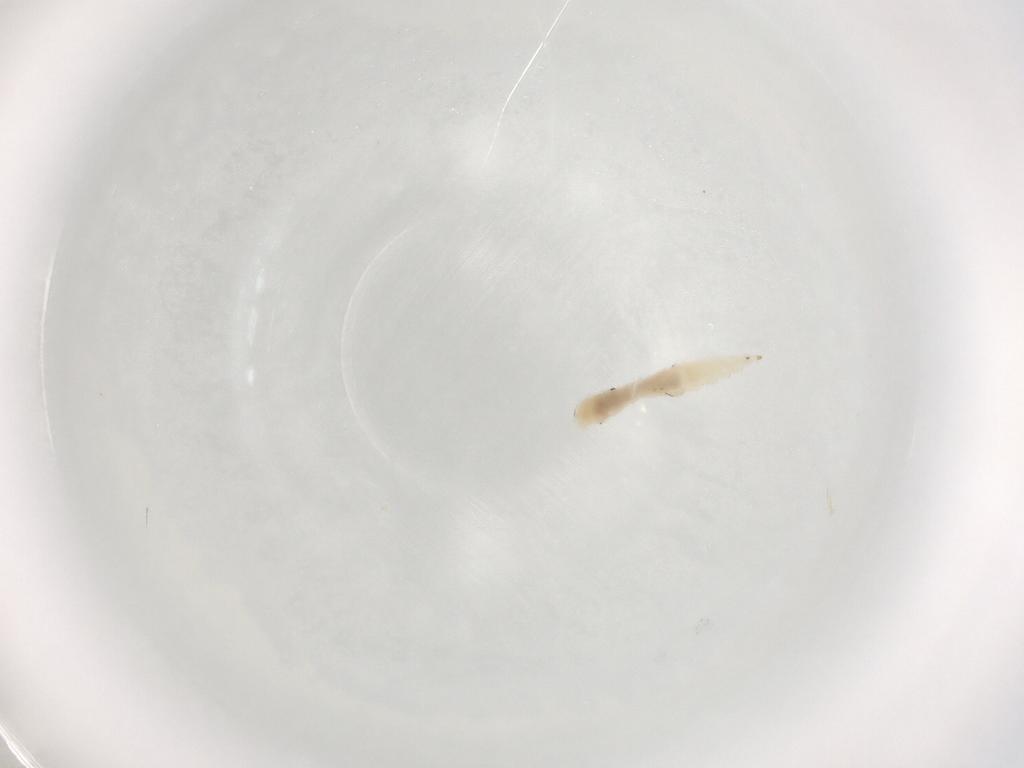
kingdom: Animalia
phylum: Arthropoda
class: Insecta
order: Diptera
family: Cecidomyiidae
